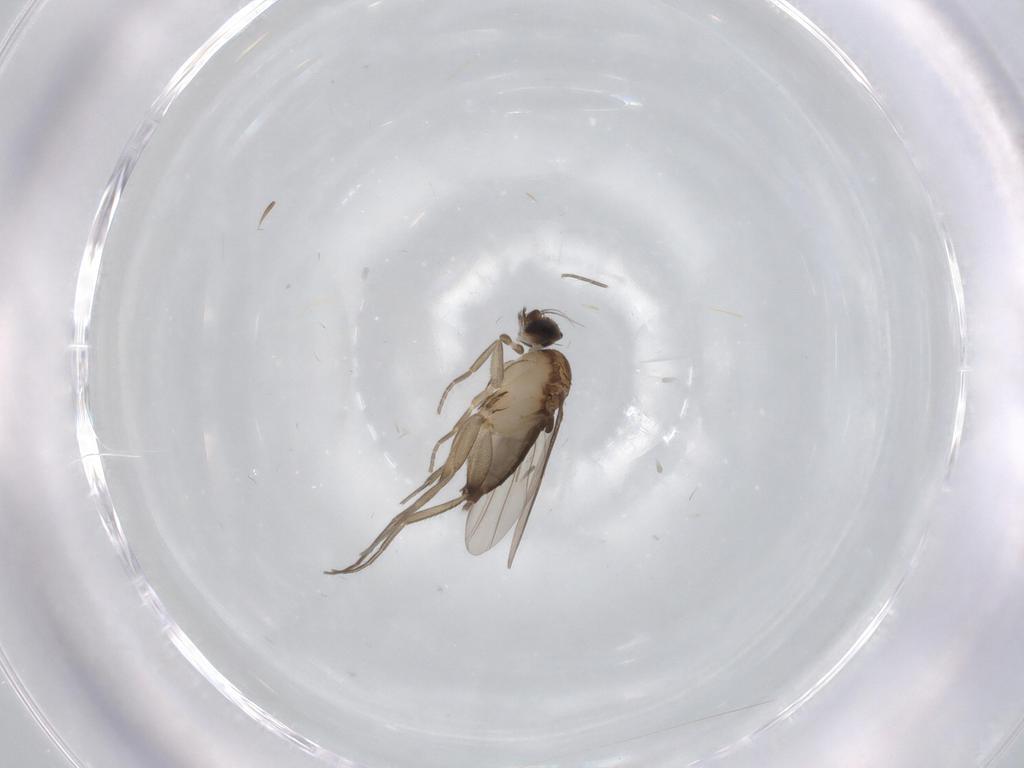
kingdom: Animalia
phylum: Arthropoda
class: Insecta
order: Diptera
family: Phoridae
